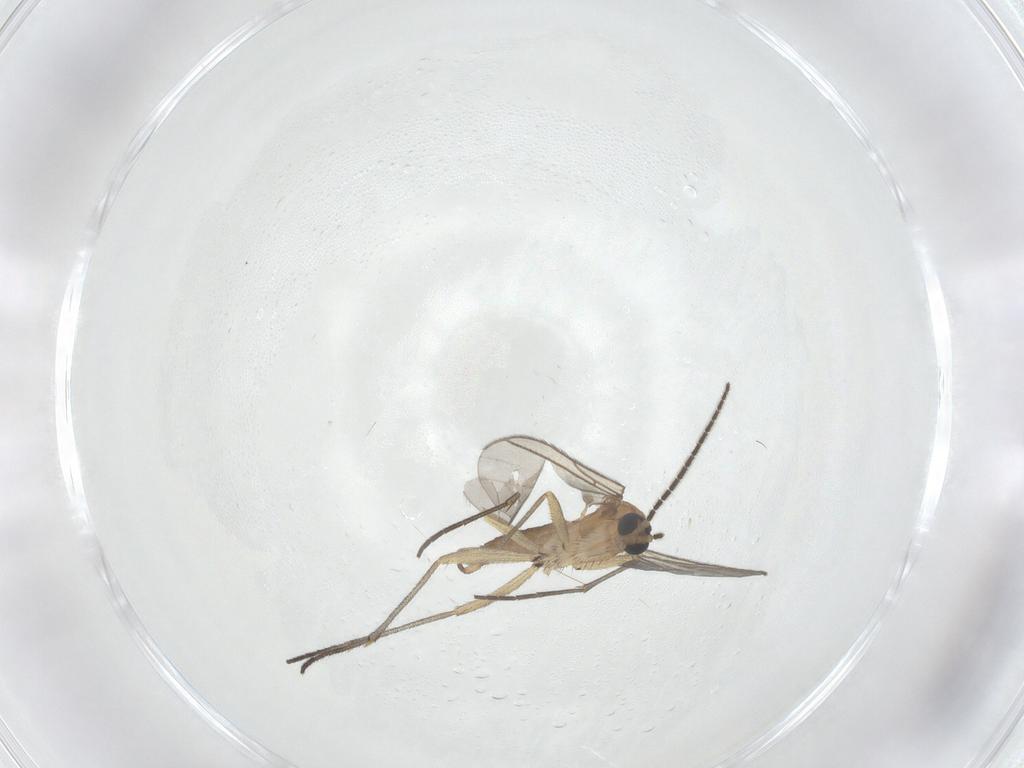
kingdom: Animalia
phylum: Arthropoda
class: Insecta
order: Diptera
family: Sciaridae
